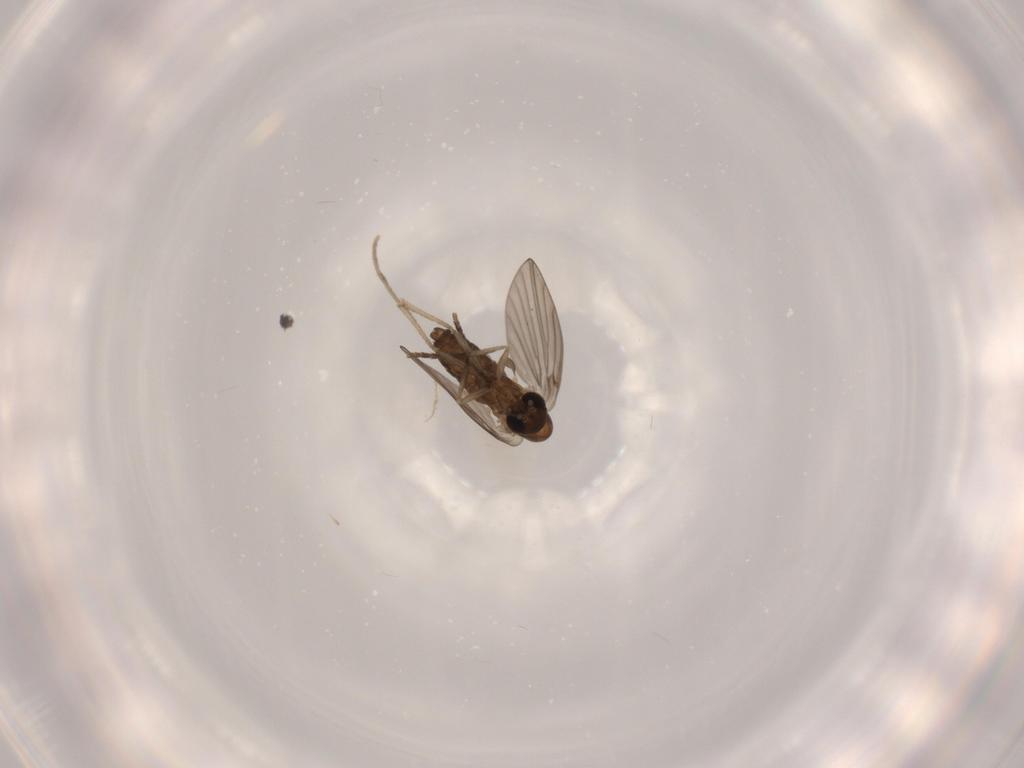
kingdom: Animalia
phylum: Arthropoda
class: Insecta
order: Diptera
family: Psychodidae
